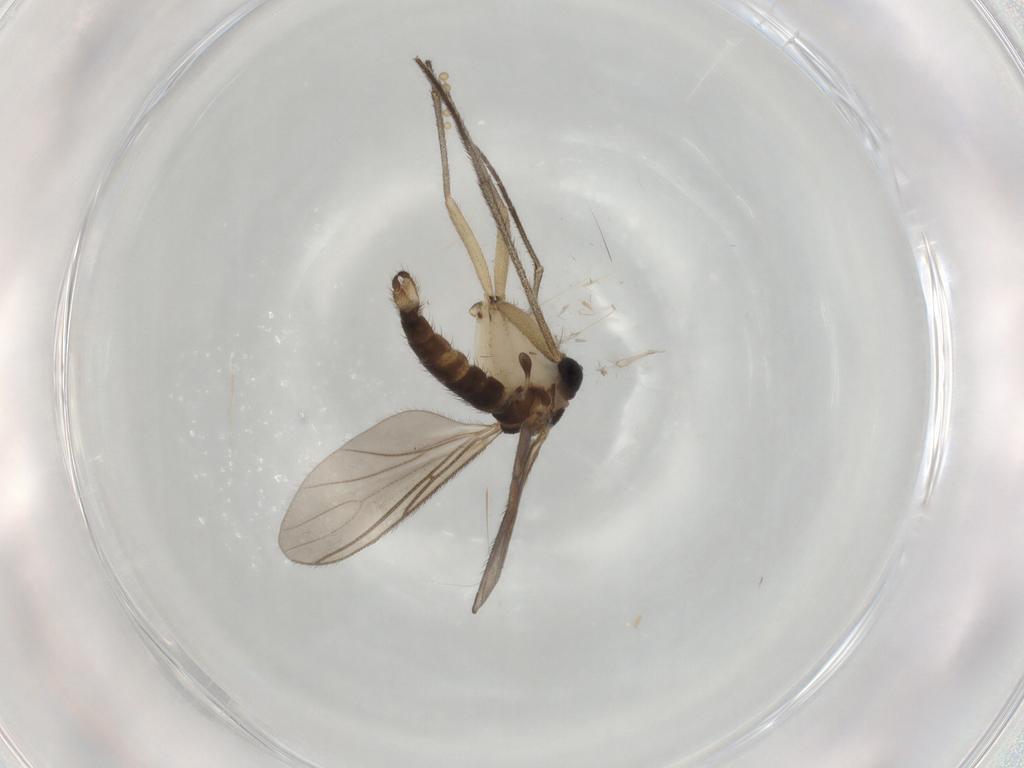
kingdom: Animalia
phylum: Arthropoda
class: Insecta
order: Diptera
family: Sciaridae
